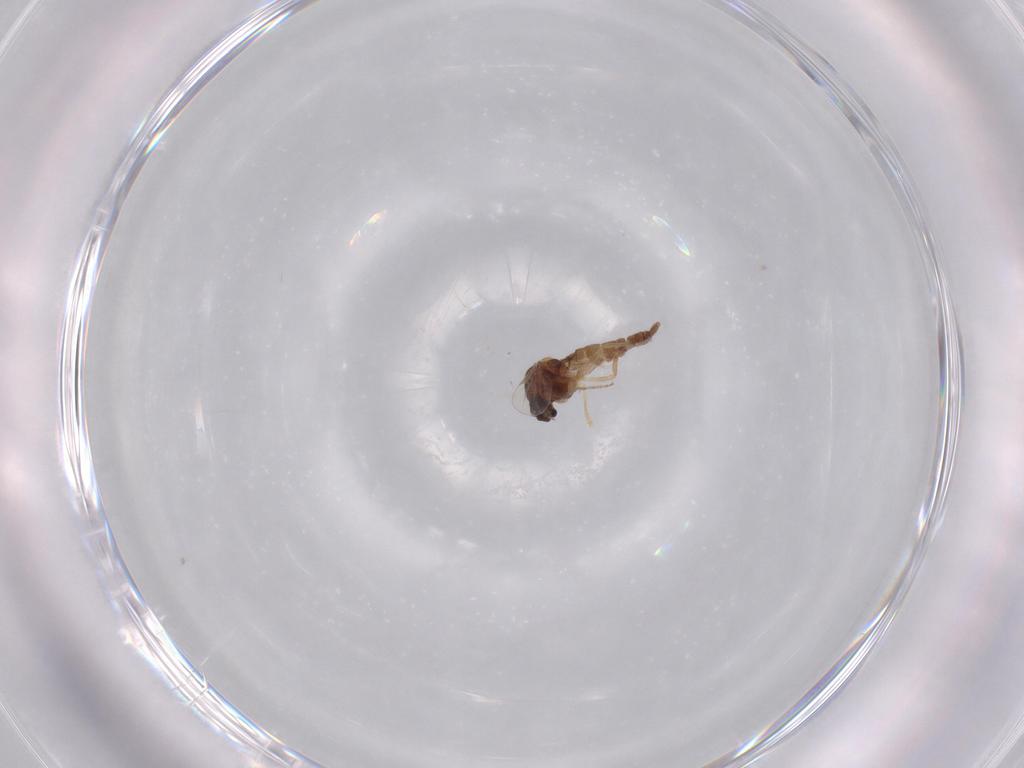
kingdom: Animalia
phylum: Arthropoda
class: Insecta
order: Diptera
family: Ceratopogonidae
